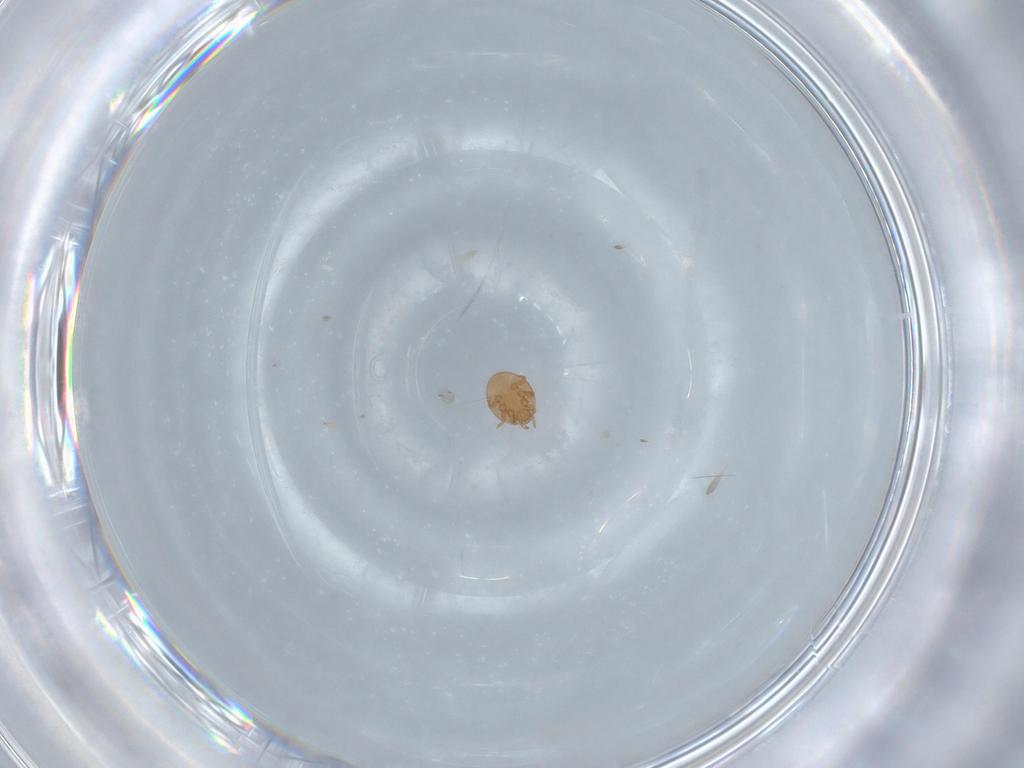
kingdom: Animalia
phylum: Arthropoda
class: Arachnida
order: Mesostigmata
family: Trematuridae
